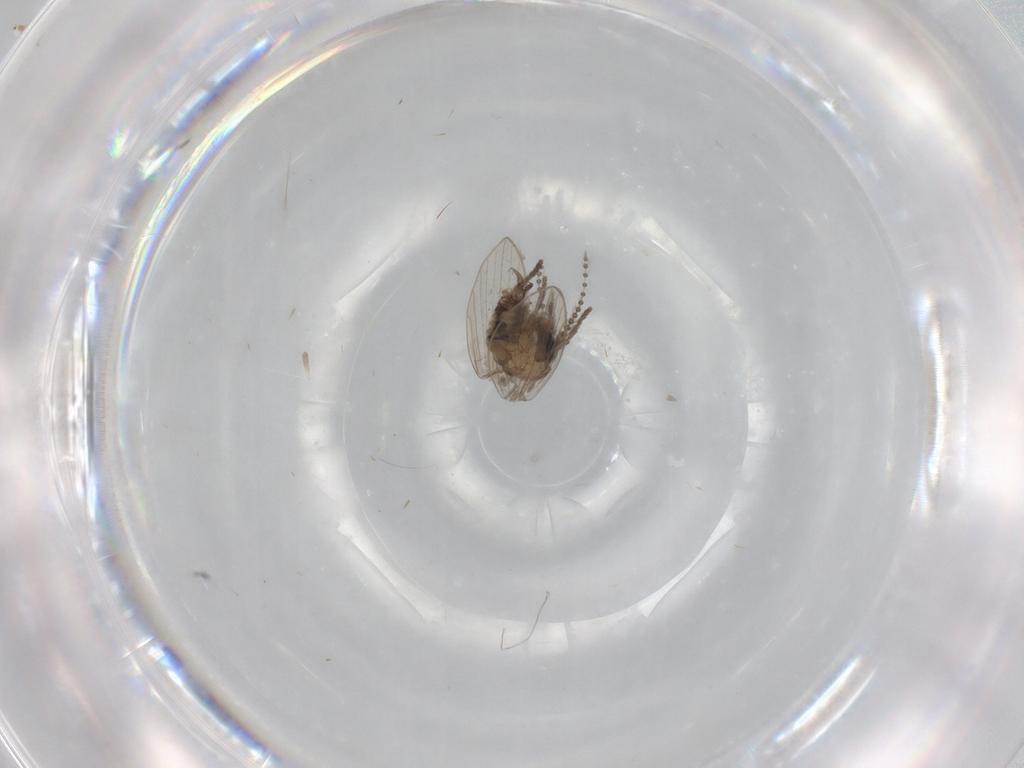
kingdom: Animalia
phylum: Arthropoda
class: Insecta
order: Diptera
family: Psychodidae
